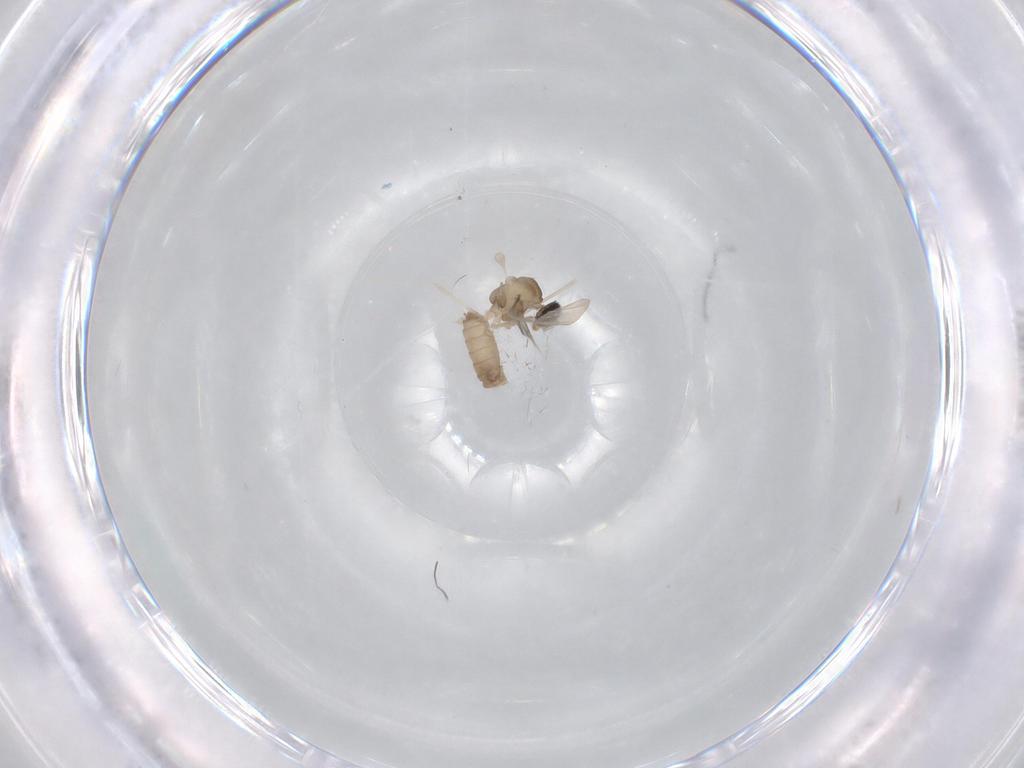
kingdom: Animalia
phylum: Arthropoda
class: Insecta
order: Diptera
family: Cecidomyiidae
